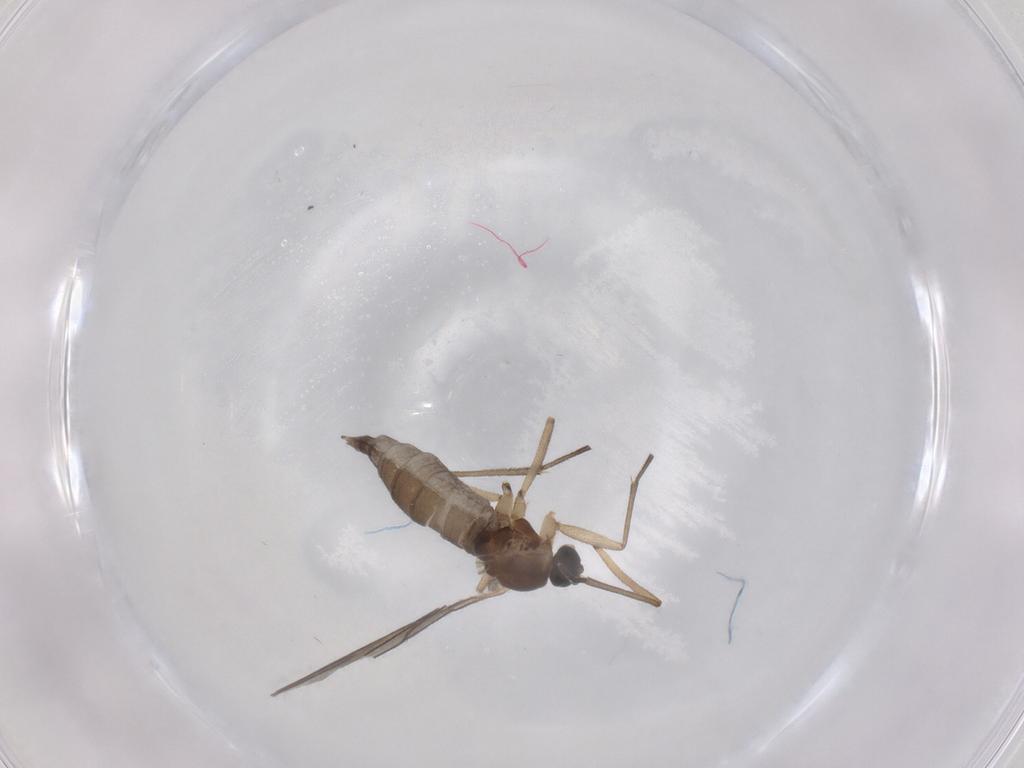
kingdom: Animalia
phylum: Arthropoda
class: Insecta
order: Diptera
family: Sciaridae
